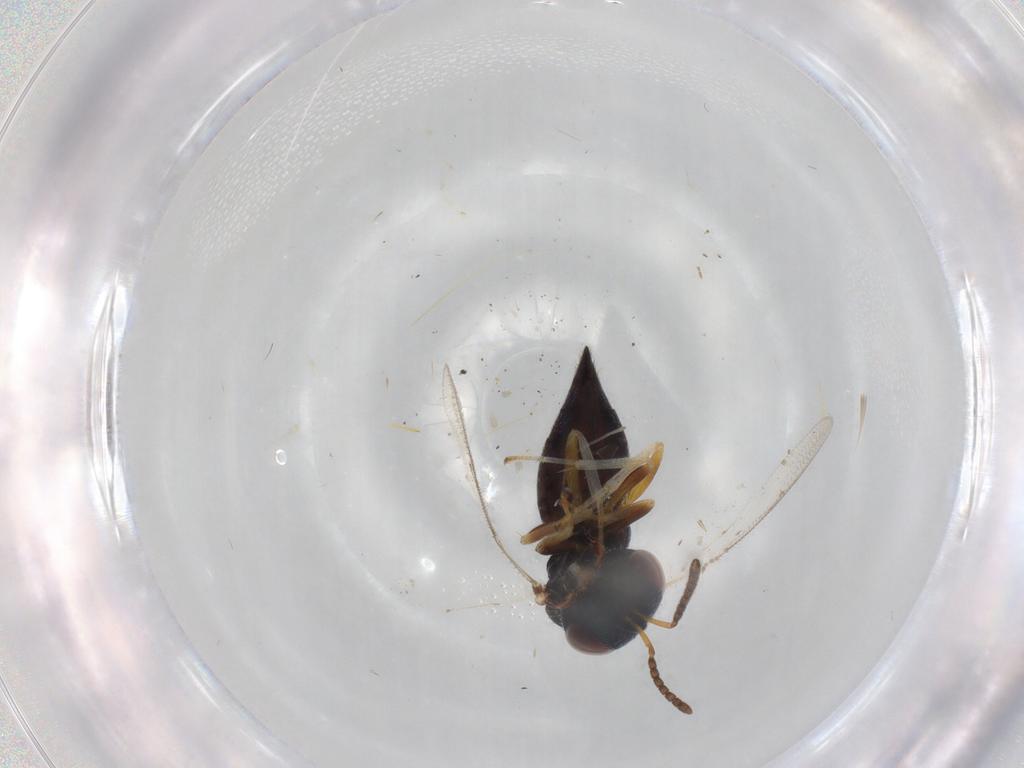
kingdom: Animalia
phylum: Arthropoda
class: Insecta
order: Hymenoptera
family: Pteromalidae
